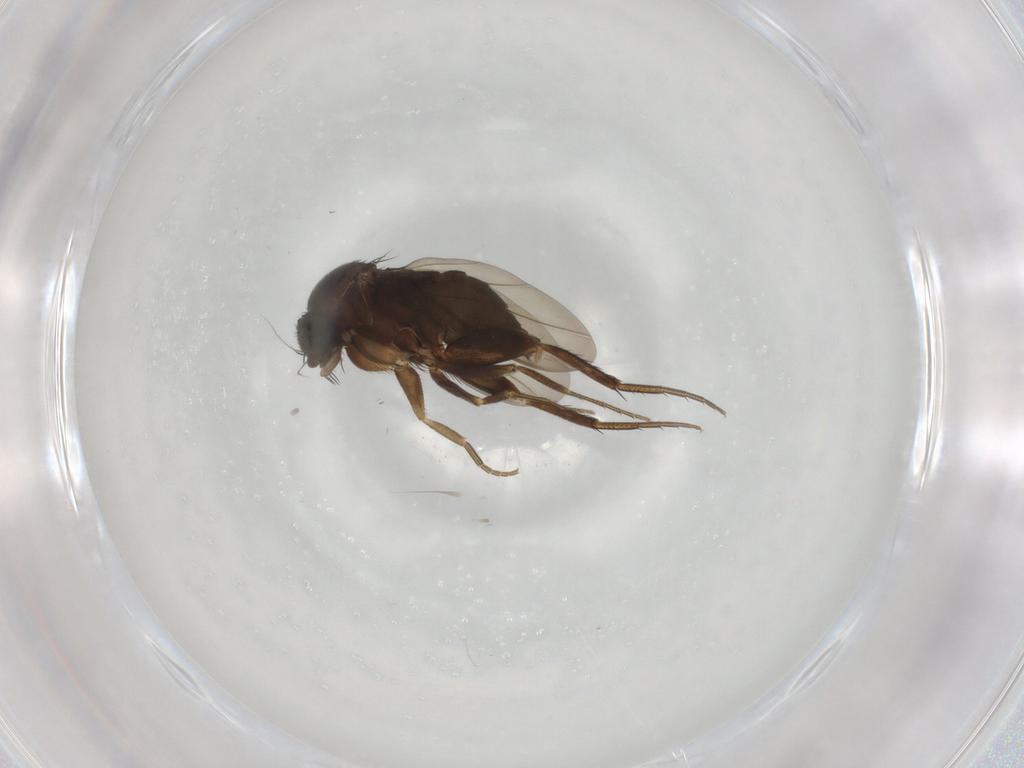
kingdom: Animalia
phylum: Arthropoda
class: Insecta
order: Diptera
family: Phoridae
